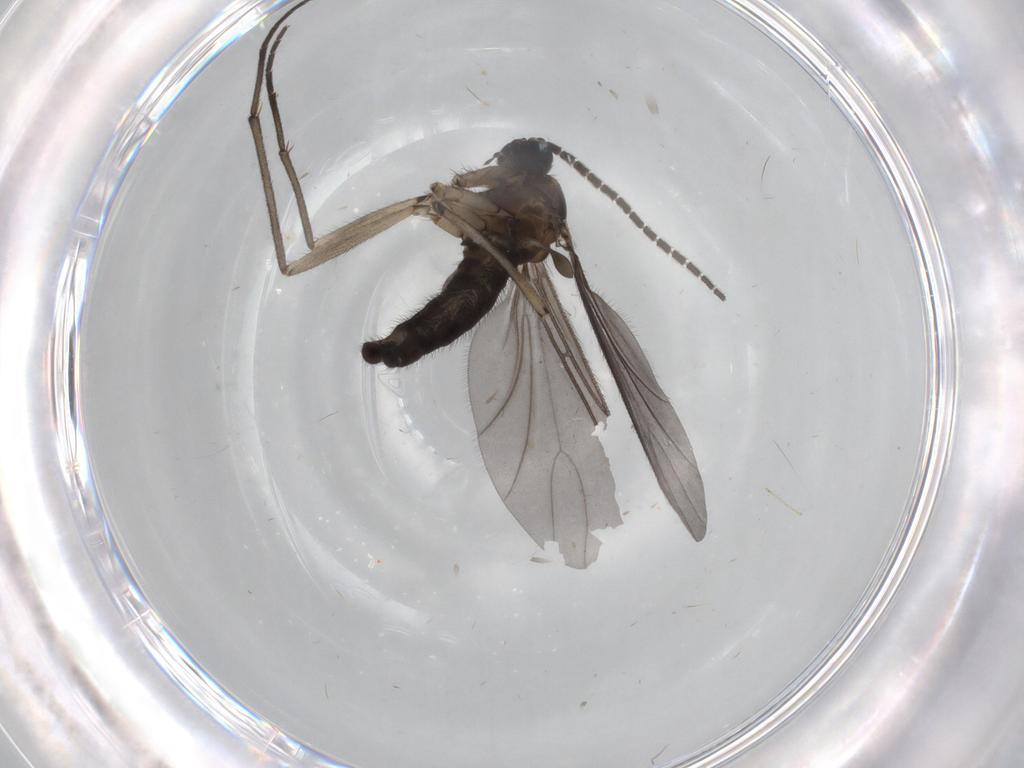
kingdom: Animalia
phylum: Arthropoda
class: Insecta
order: Diptera
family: Sciaridae
